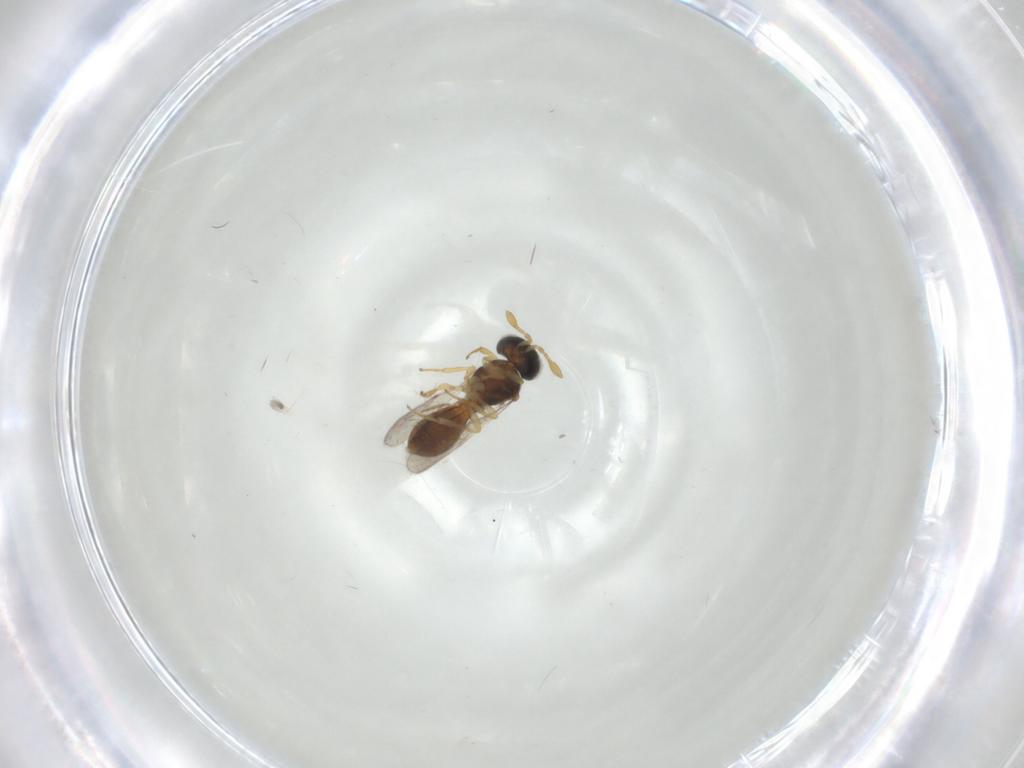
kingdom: Animalia
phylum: Arthropoda
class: Insecta
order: Hymenoptera
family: Scelionidae
